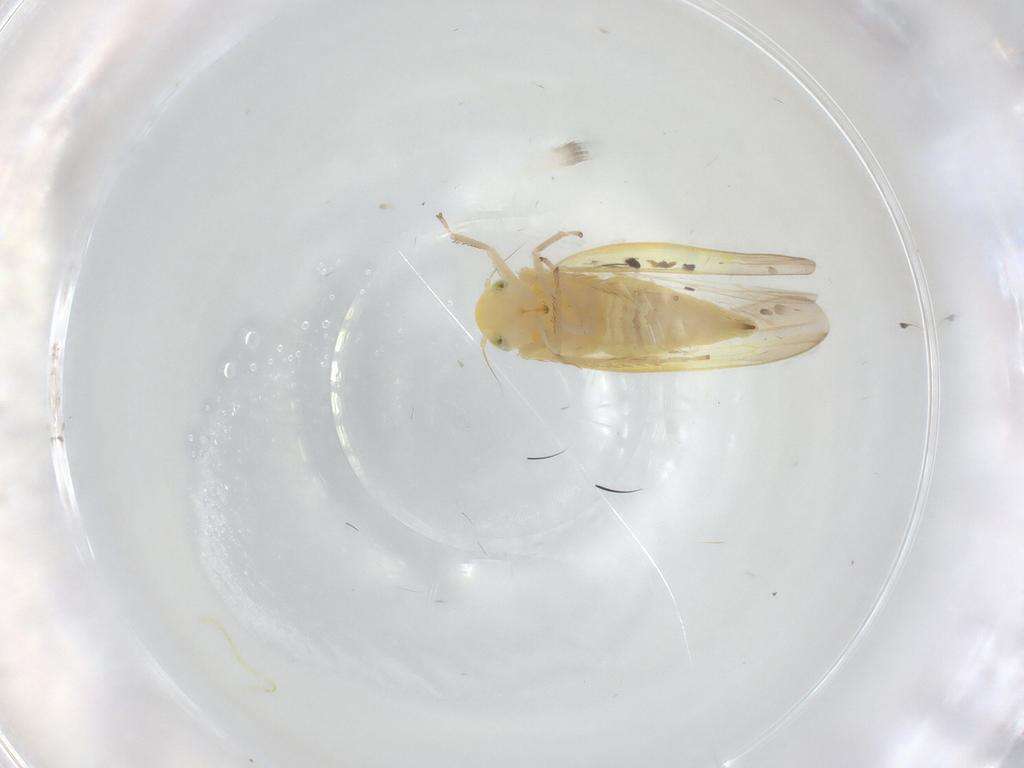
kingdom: Animalia
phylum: Arthropoda
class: Insecta
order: Hemiptera
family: Cicadellidae
